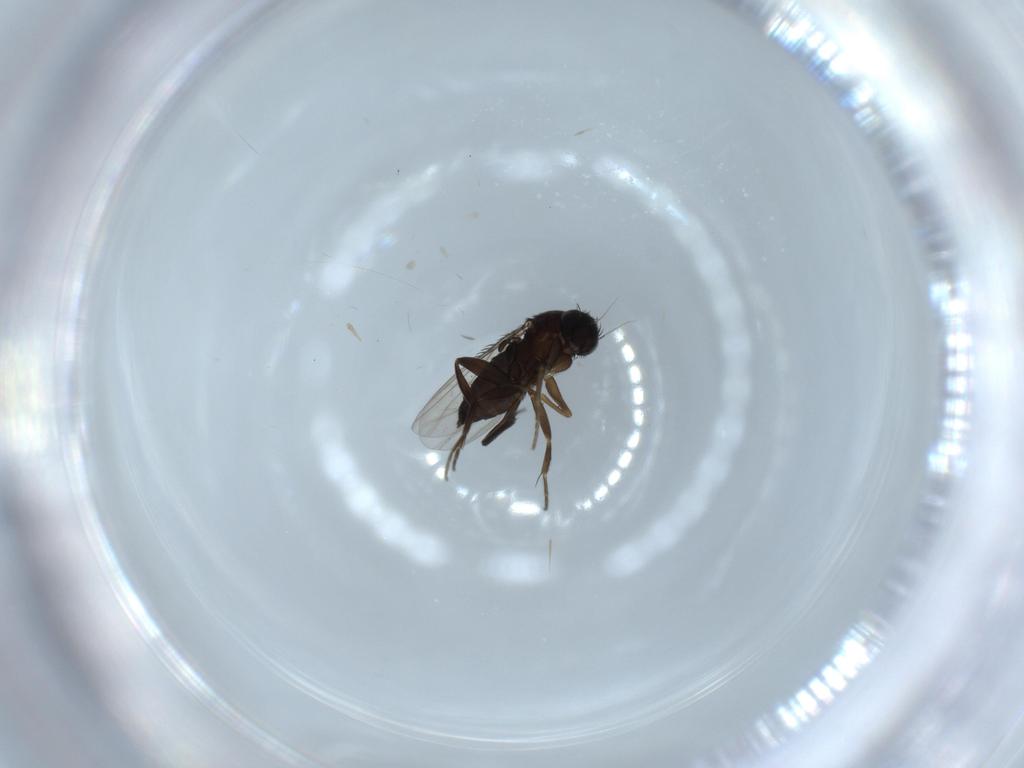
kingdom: Animalia
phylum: Arthropoda
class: Insecta
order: Diptera
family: Phoridae
